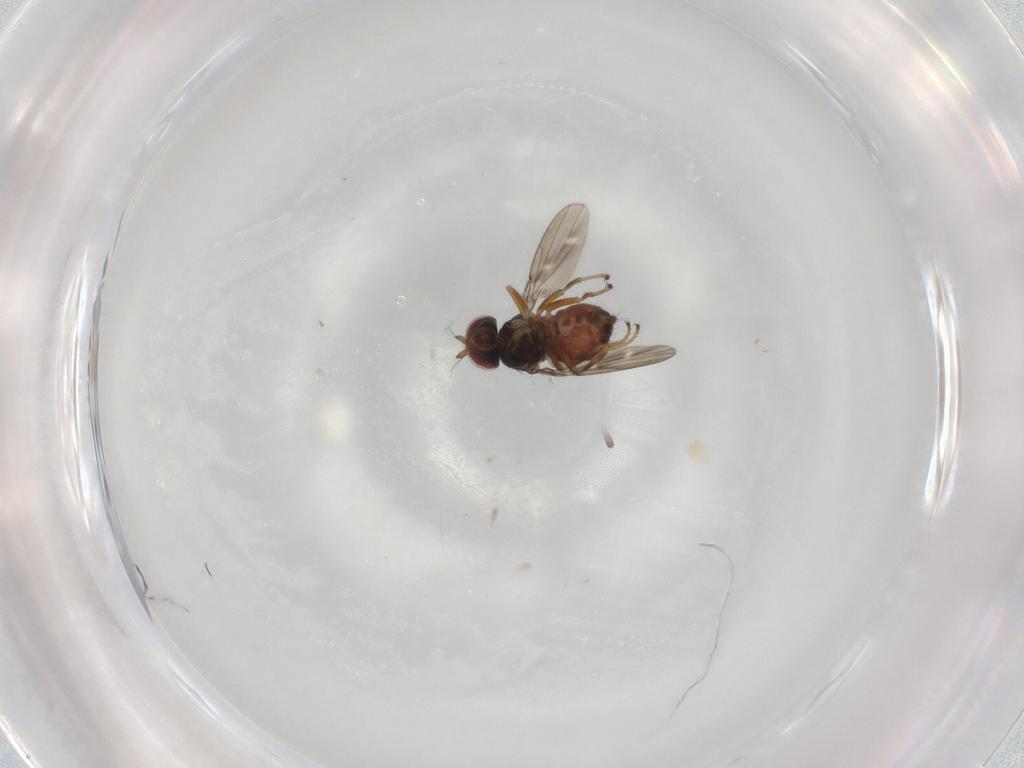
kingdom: Animalia
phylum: Arthropoda
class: Insecta
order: Diptera
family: Ephydridae
